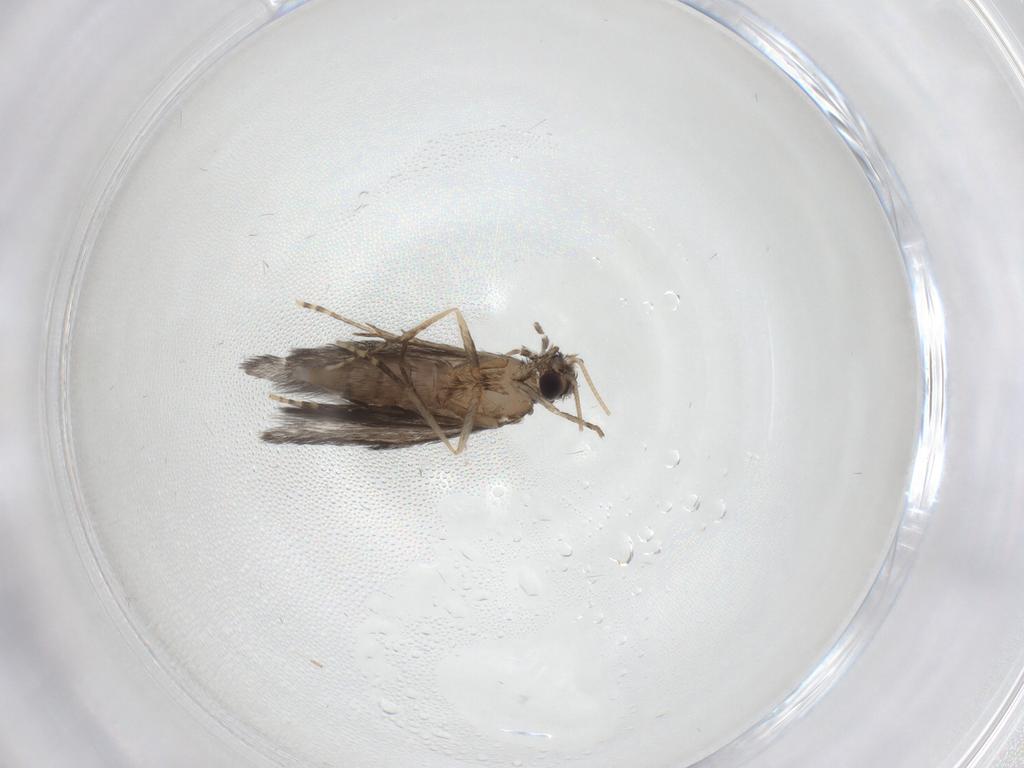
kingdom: Animalia
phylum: Arthropoda
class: Insecta
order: Trichoptera
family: Hydroptilidae
